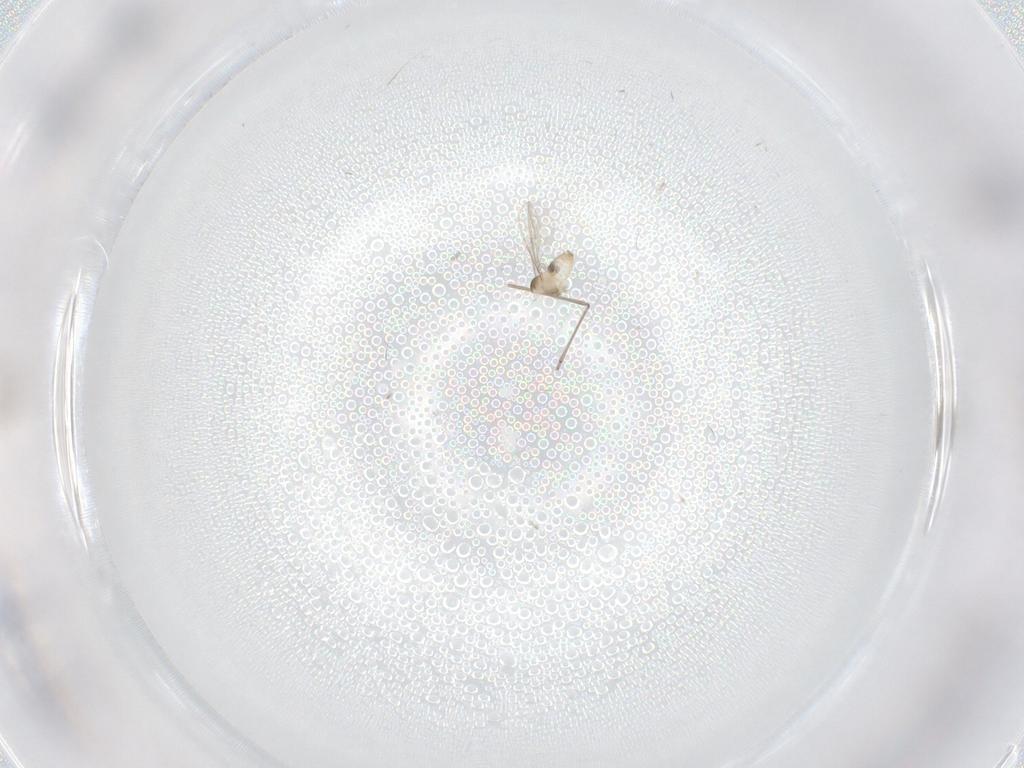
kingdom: Animalia
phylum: Arthropoda
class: Insecta
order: Diptera
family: Cecidomyiidae
